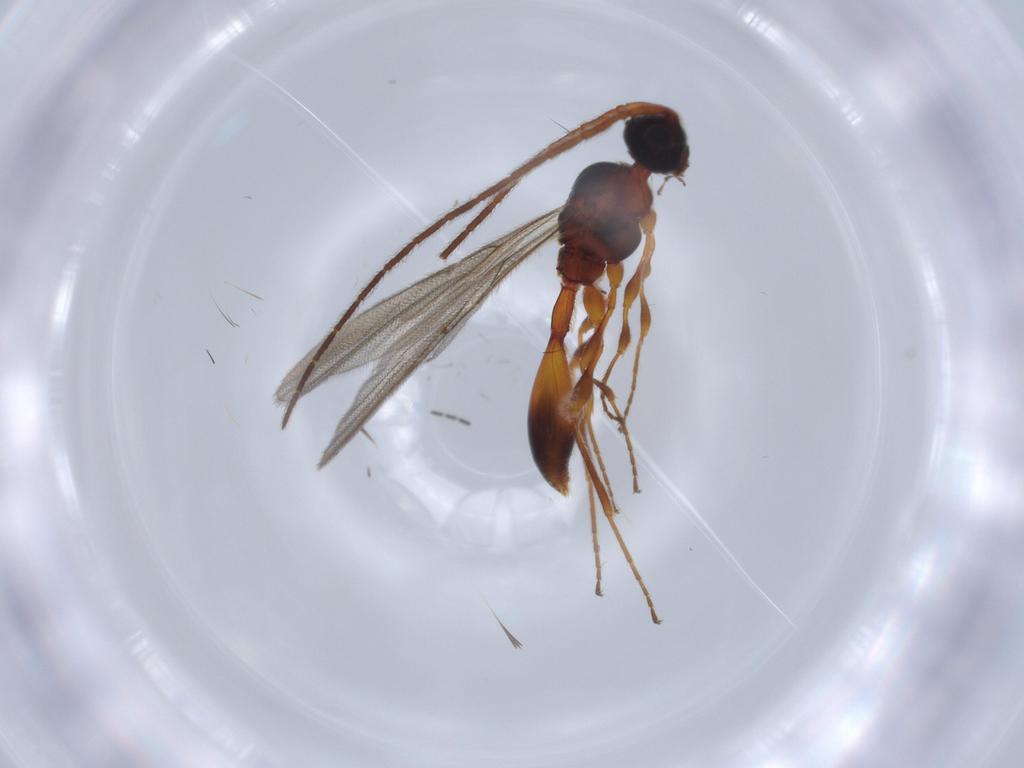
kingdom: Animalia
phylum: Arthropoda
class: Insecta
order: Hymenoptera
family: Diapriidae
